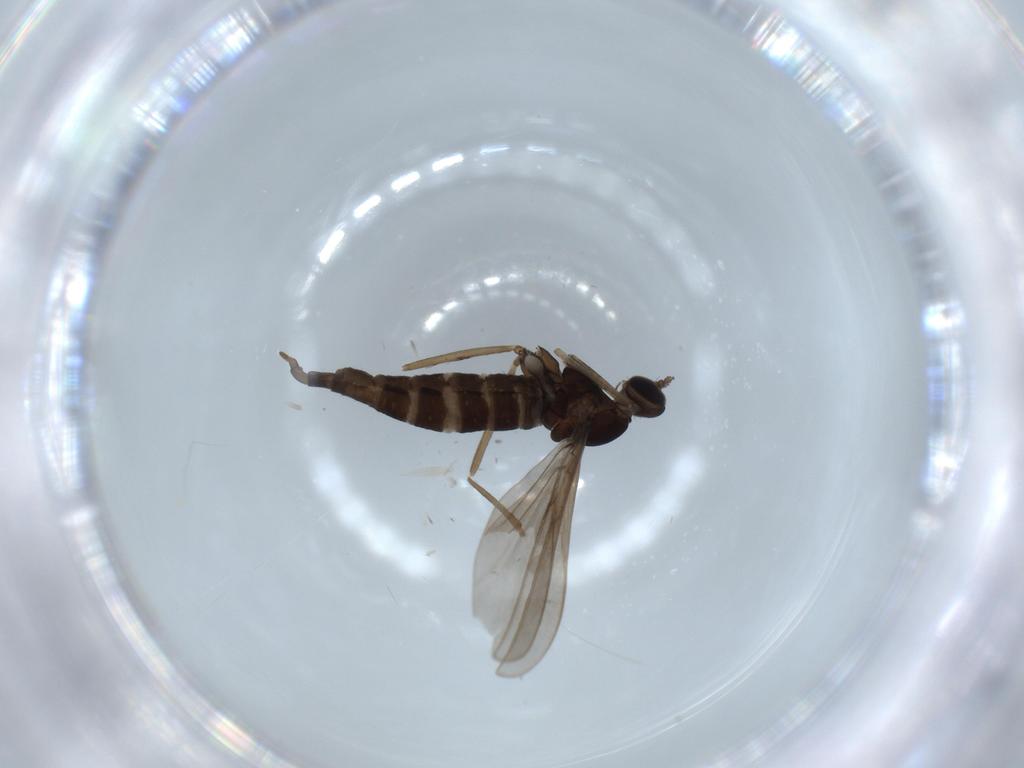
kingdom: Animalia
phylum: Arthropoda
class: Insecta
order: Diptera
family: Cecidomyiidae
